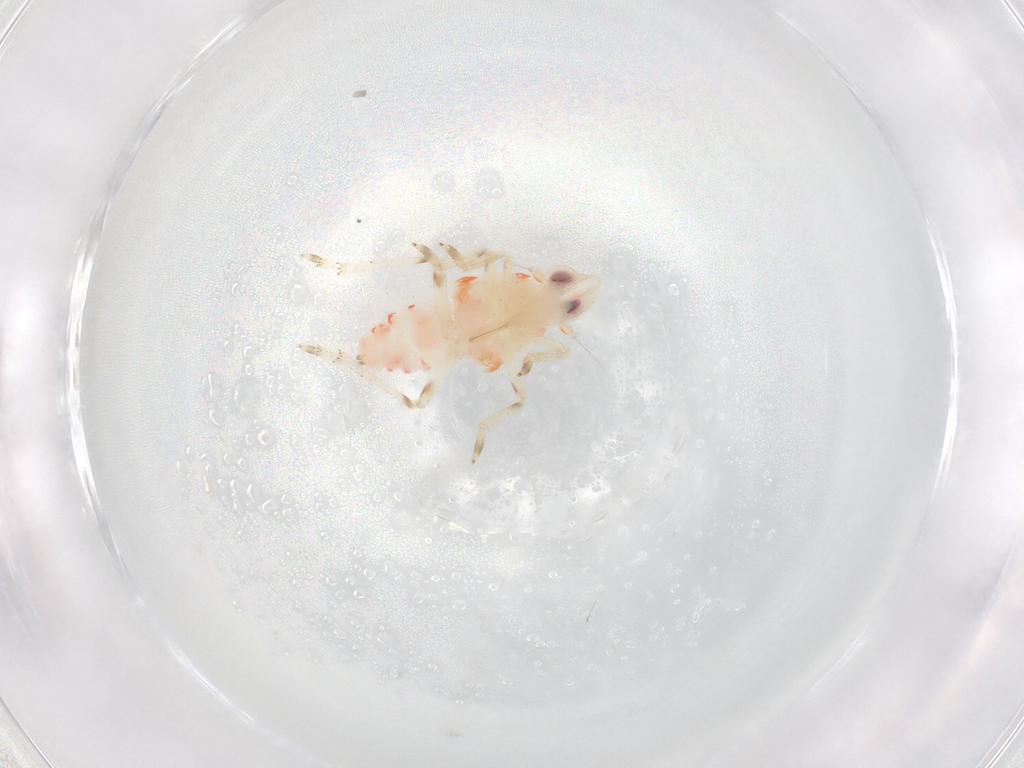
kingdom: Animalia
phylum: Arthropoda
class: Insecta
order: Hemiptera
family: Tropiduchidae
